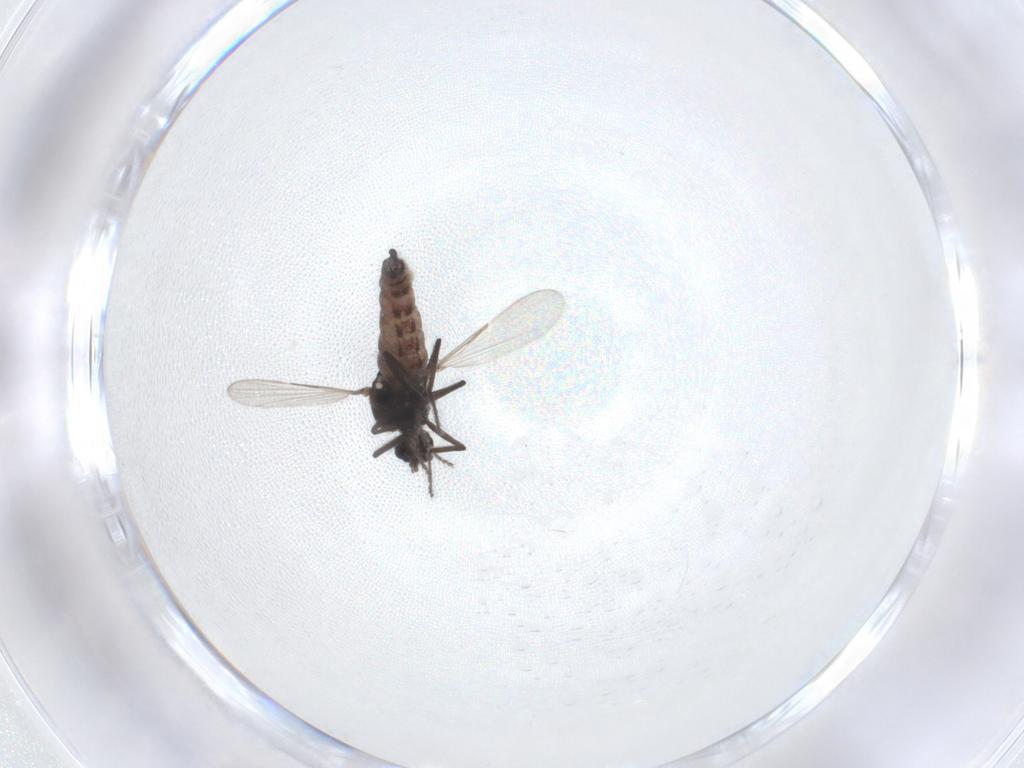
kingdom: Animalia
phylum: Arthropoda
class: Insecta
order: Diptera
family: Ceratopogonidae
